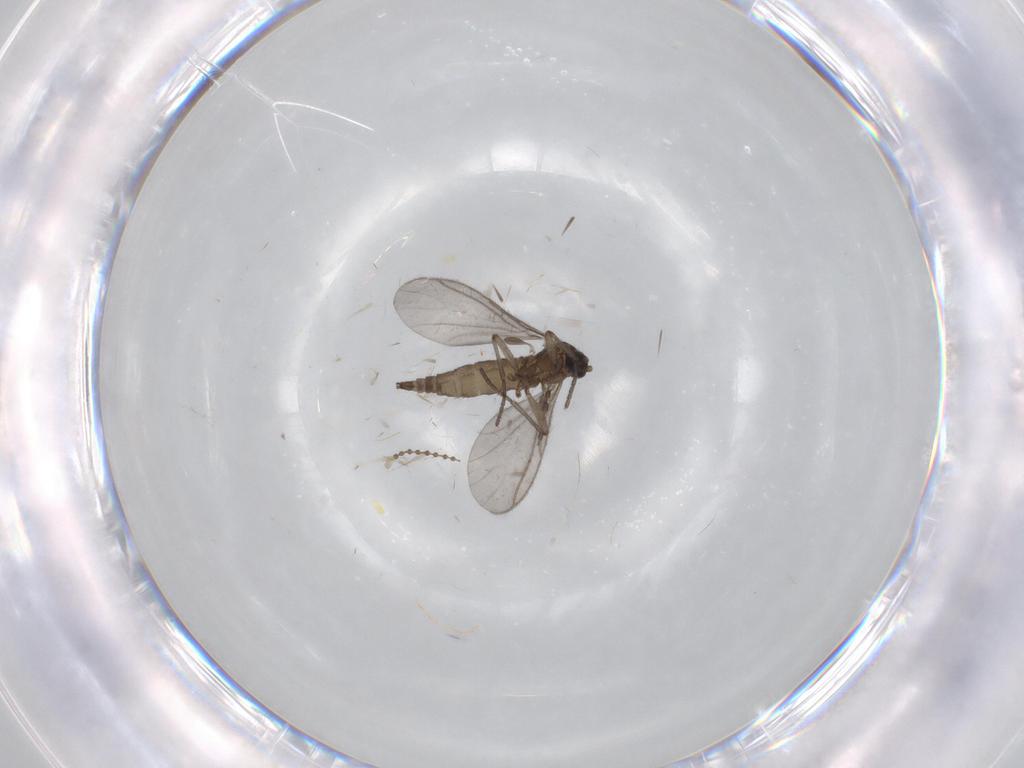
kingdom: Animalia
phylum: Arthropoda
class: Insecta
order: Diptera
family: Sciaridae
